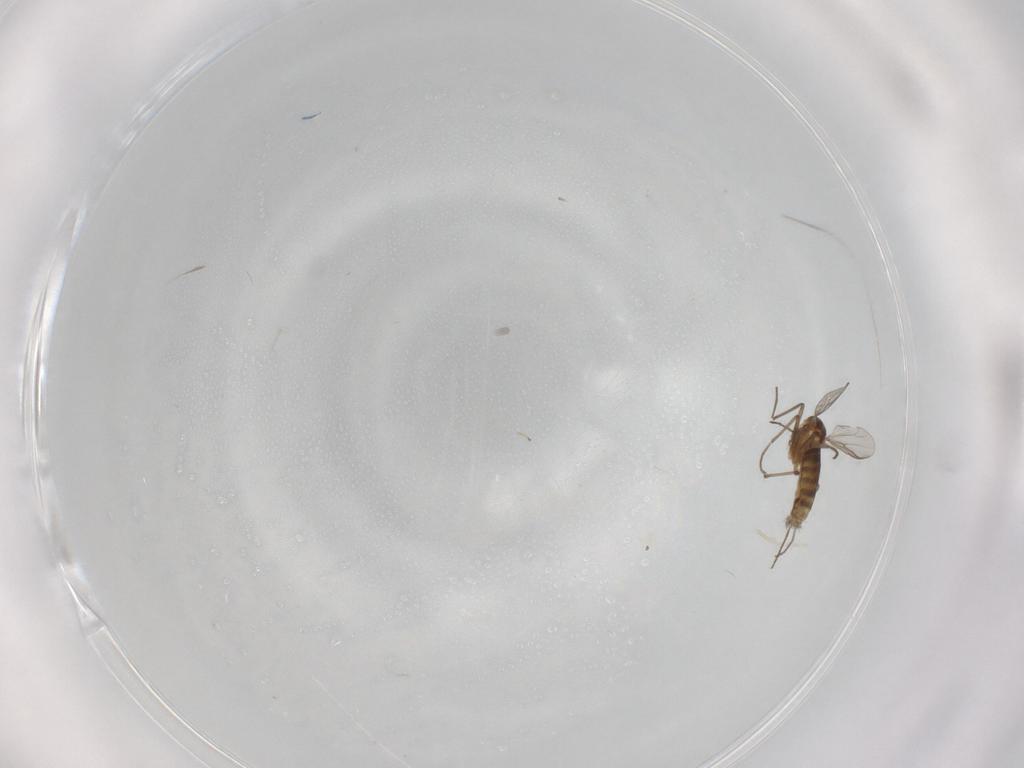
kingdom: Animalia
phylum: Arthropoda
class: Insecta
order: Diptera
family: Chironomidae
